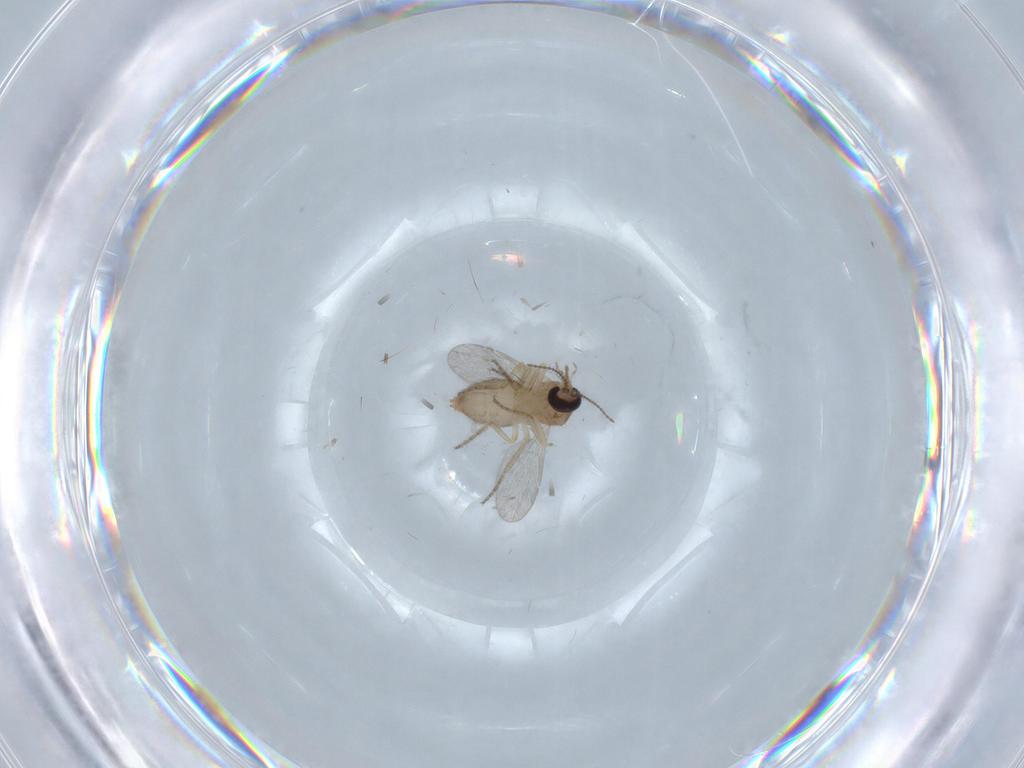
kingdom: Animalia
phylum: Arthropoda
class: Insecta
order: Diptera
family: Ceratopogonidae
